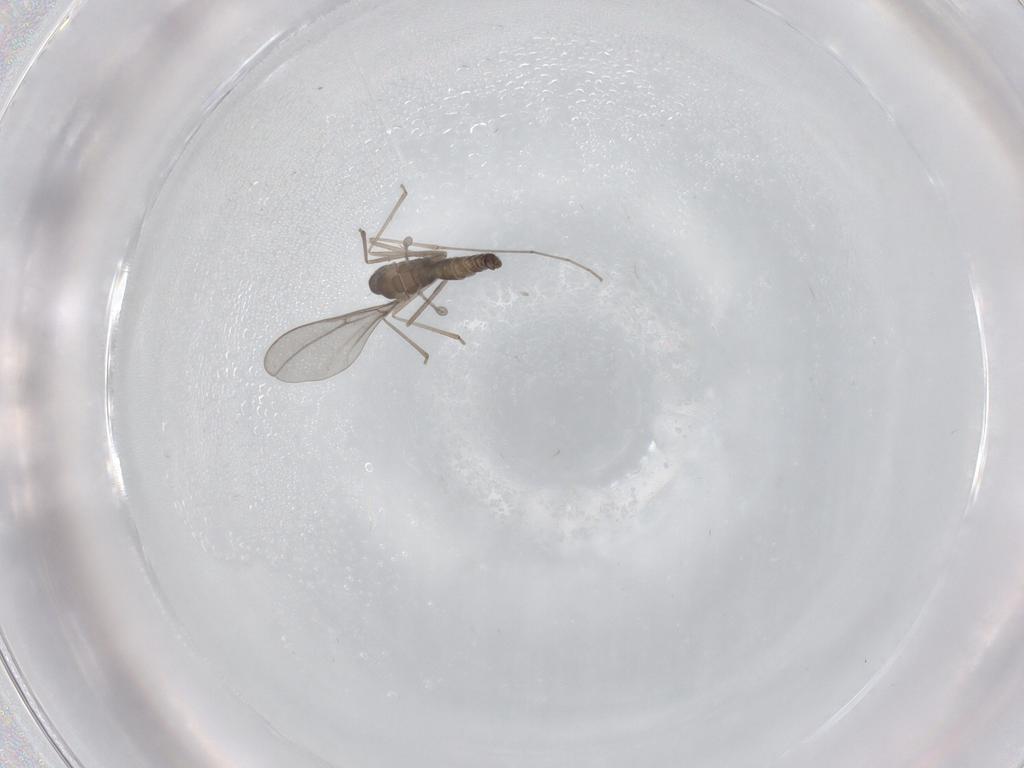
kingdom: Animalia
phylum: Arthropoda
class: Insecta
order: Diptera
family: Cecidomyiidae
